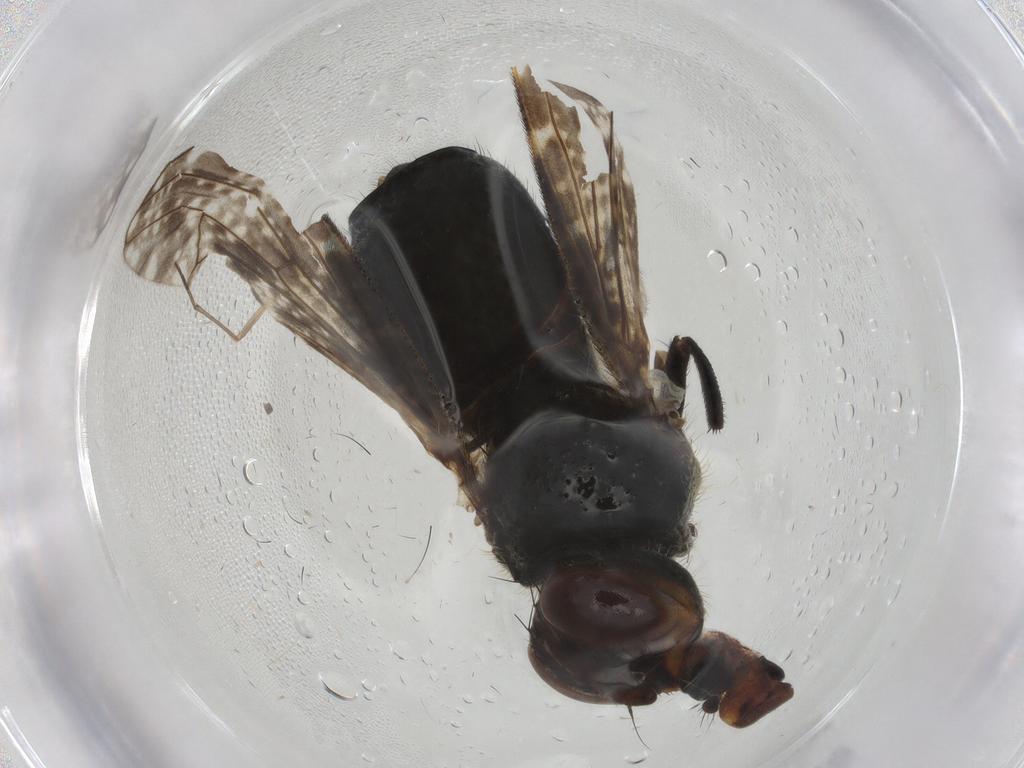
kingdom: Animalia
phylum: Arthropoda
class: Insecta
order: Diptera
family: Platystomatidae
